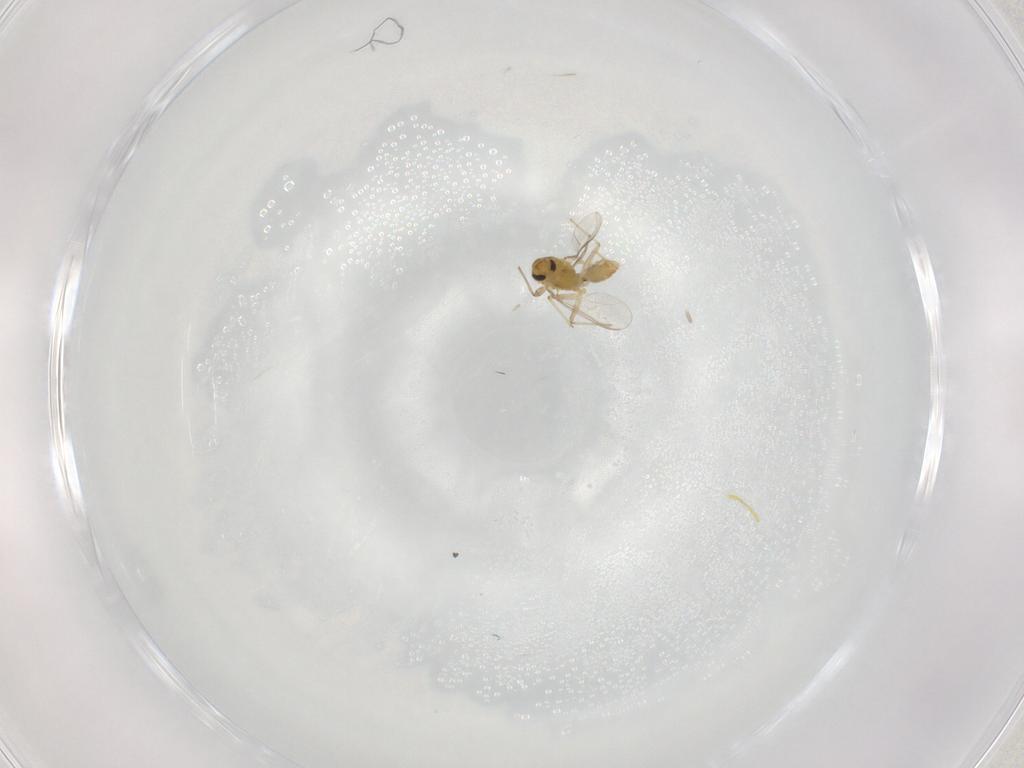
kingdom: Animalia
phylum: Arthropoda
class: Insecta
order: Diptera
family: Chironomidae
